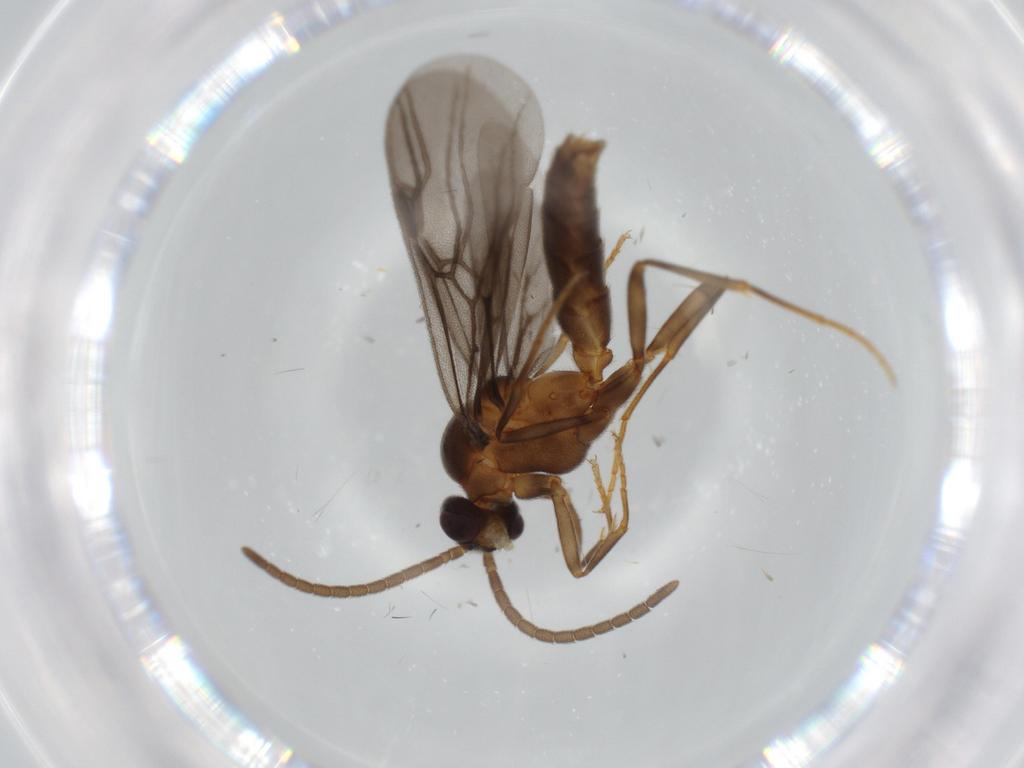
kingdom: Animalia
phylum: Arthropoda
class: Insecta
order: Hymenoptera
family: Formicidae
